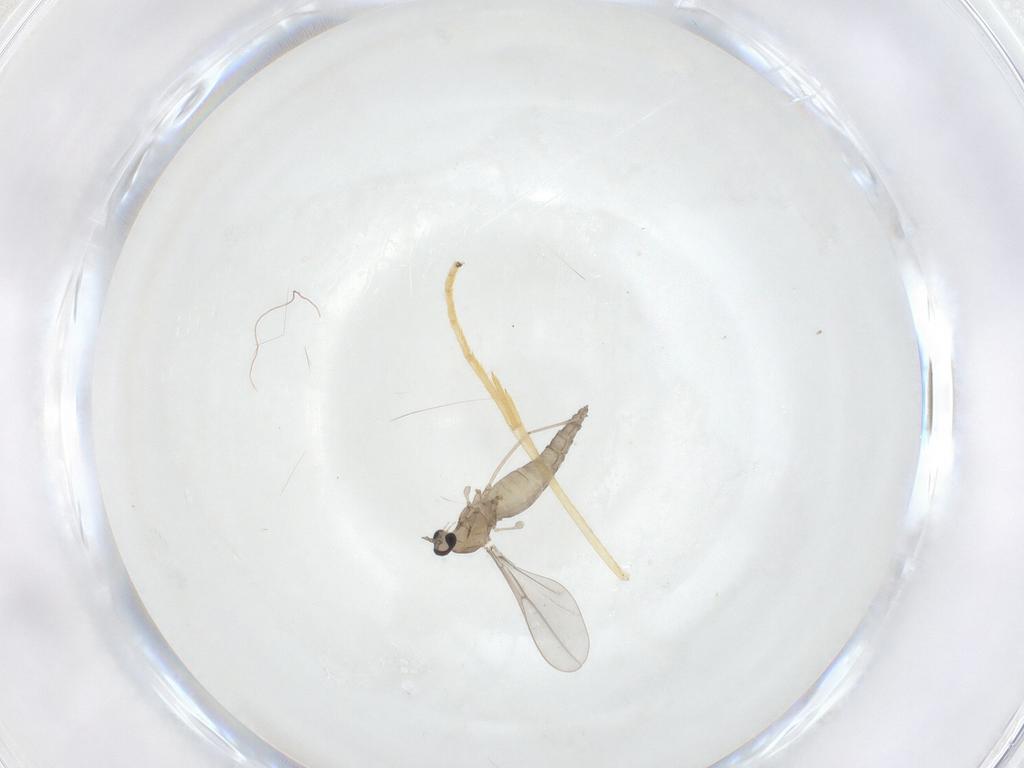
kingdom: Animalia
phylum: Arthropoda
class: Insecta
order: Diptera
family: Cecidomyiidae
